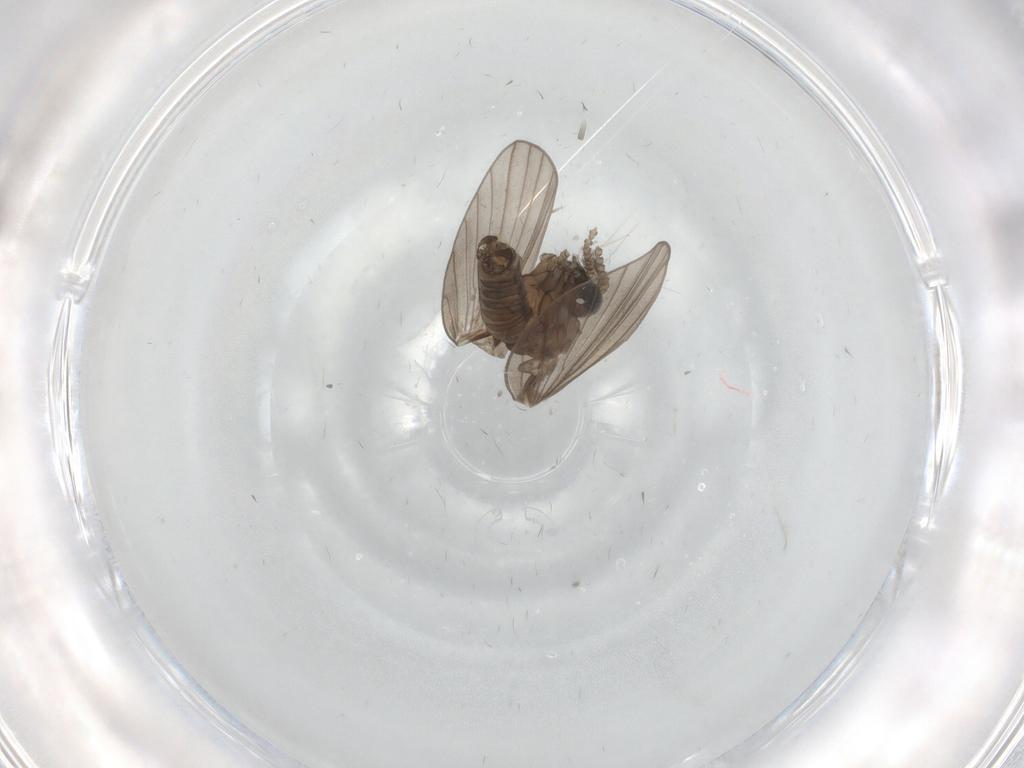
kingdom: Animalia
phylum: Arthropoda
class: Insecta
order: Diptera
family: Psychodidae
